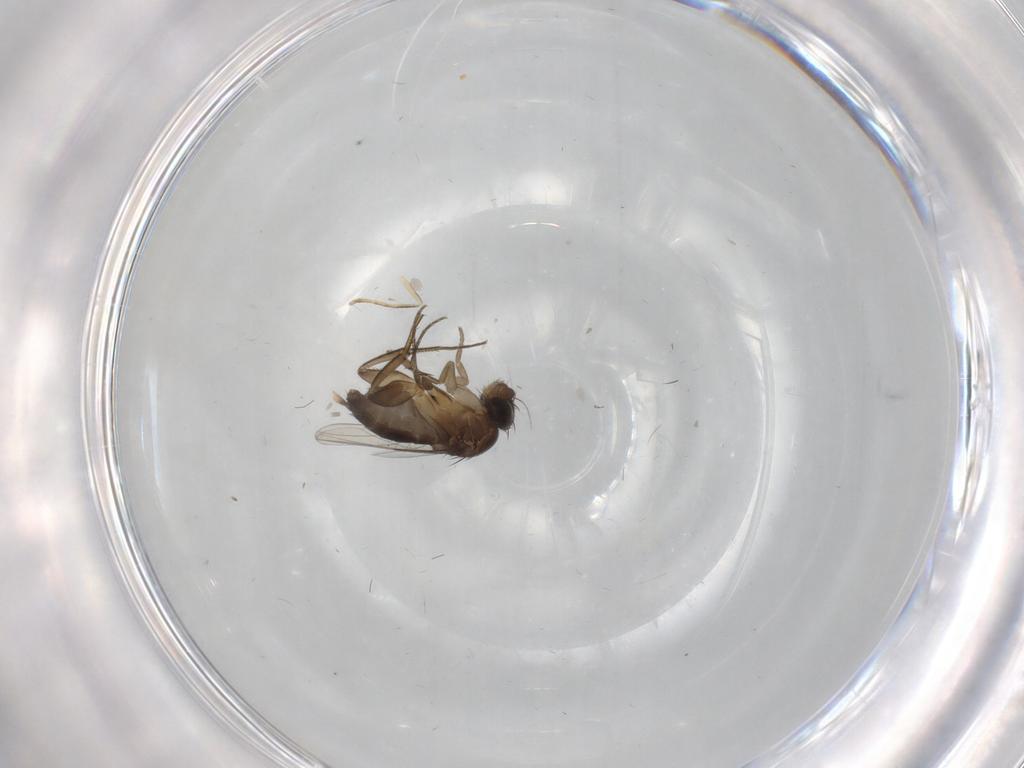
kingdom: Animalia
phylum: Arthropoda
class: Insecta
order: Diptera
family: Phoridae
